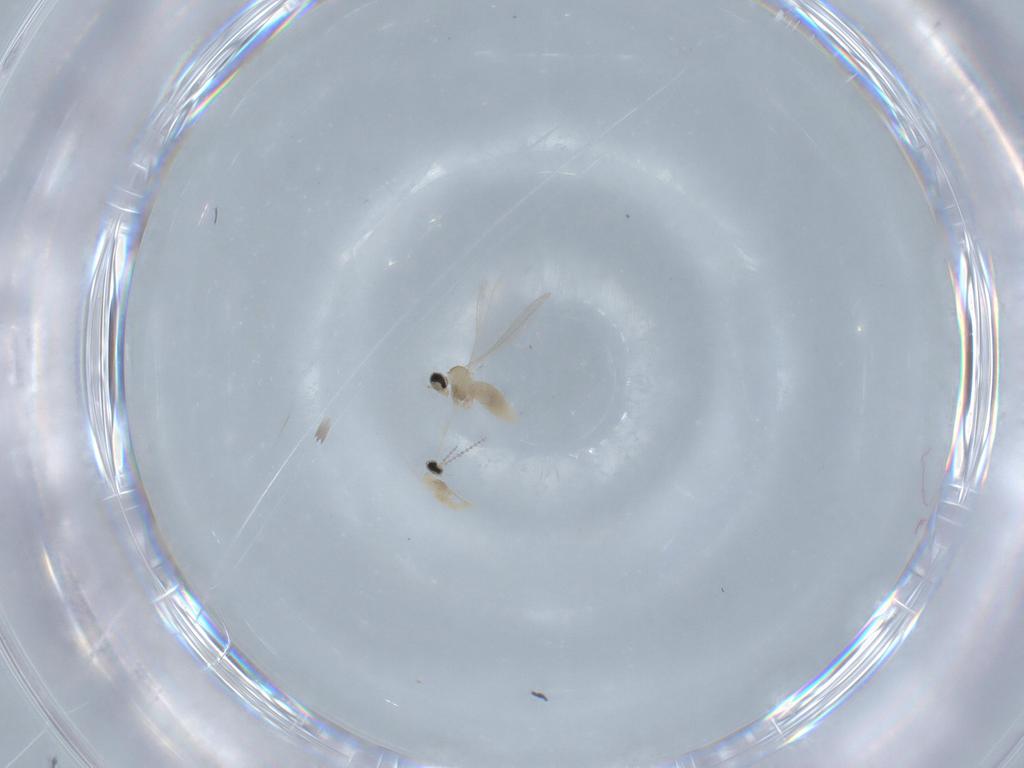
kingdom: Animalia
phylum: Arthropoda
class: Insecta
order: Diptera
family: Cecidomyiidae
